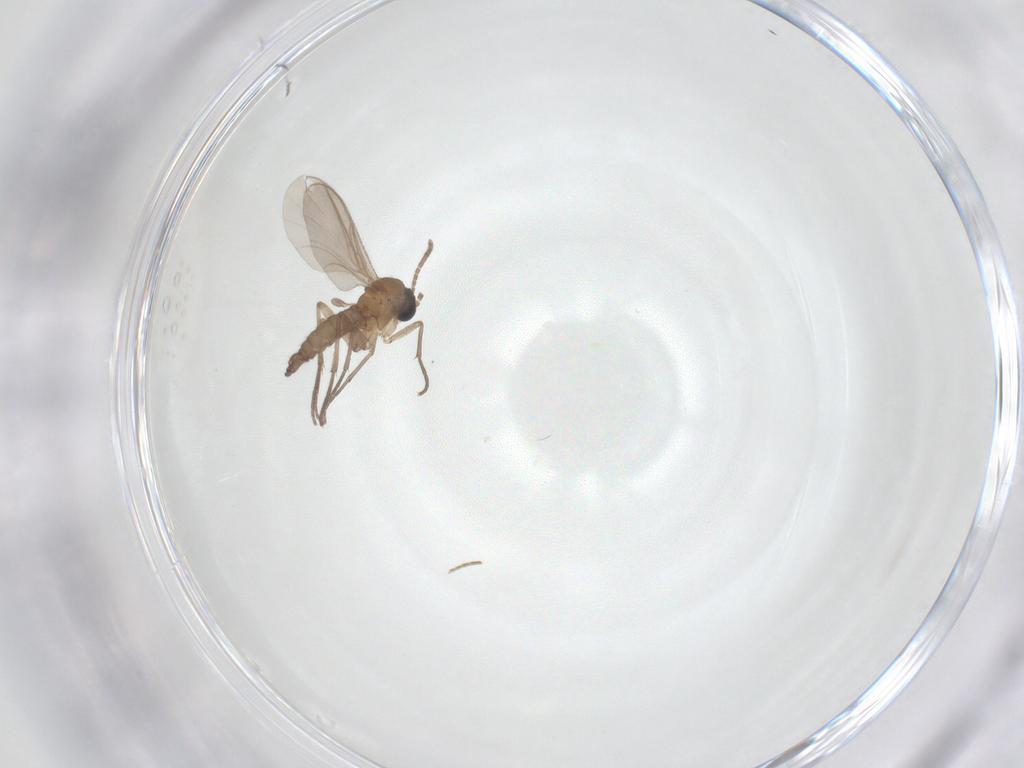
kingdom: Animalia
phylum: Arthropoda
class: Insecta
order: Diptera
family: Sciaridae
